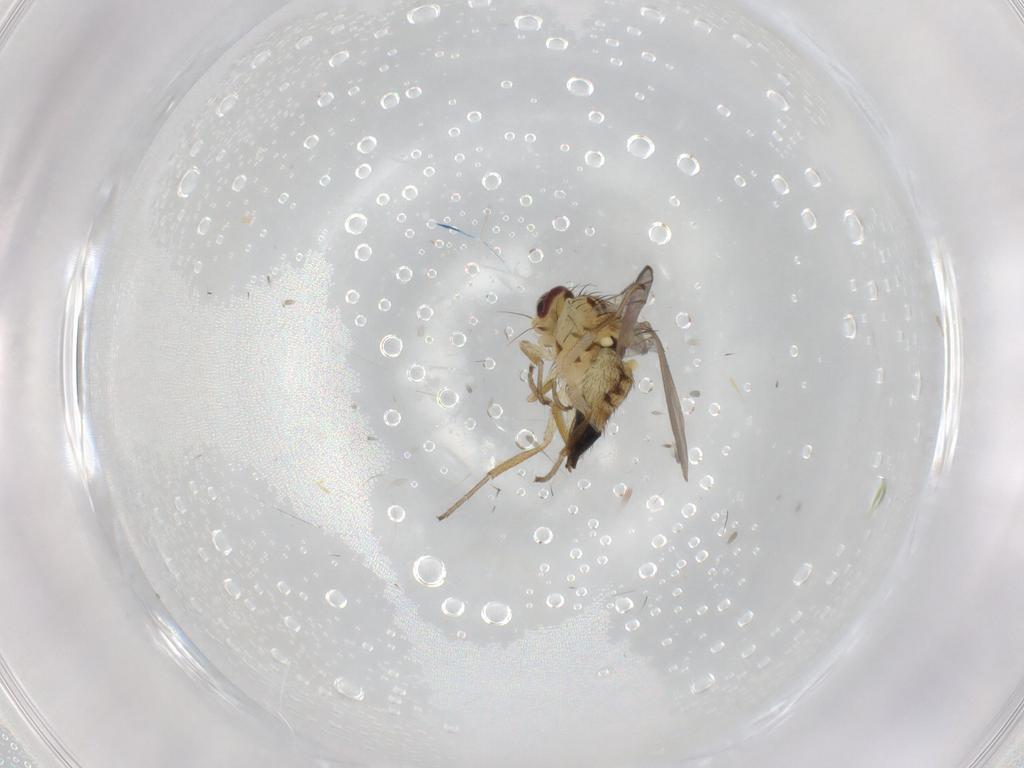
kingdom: Animalia
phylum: Arthropoda
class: Insecta
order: Diptera
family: Agromyzidae
